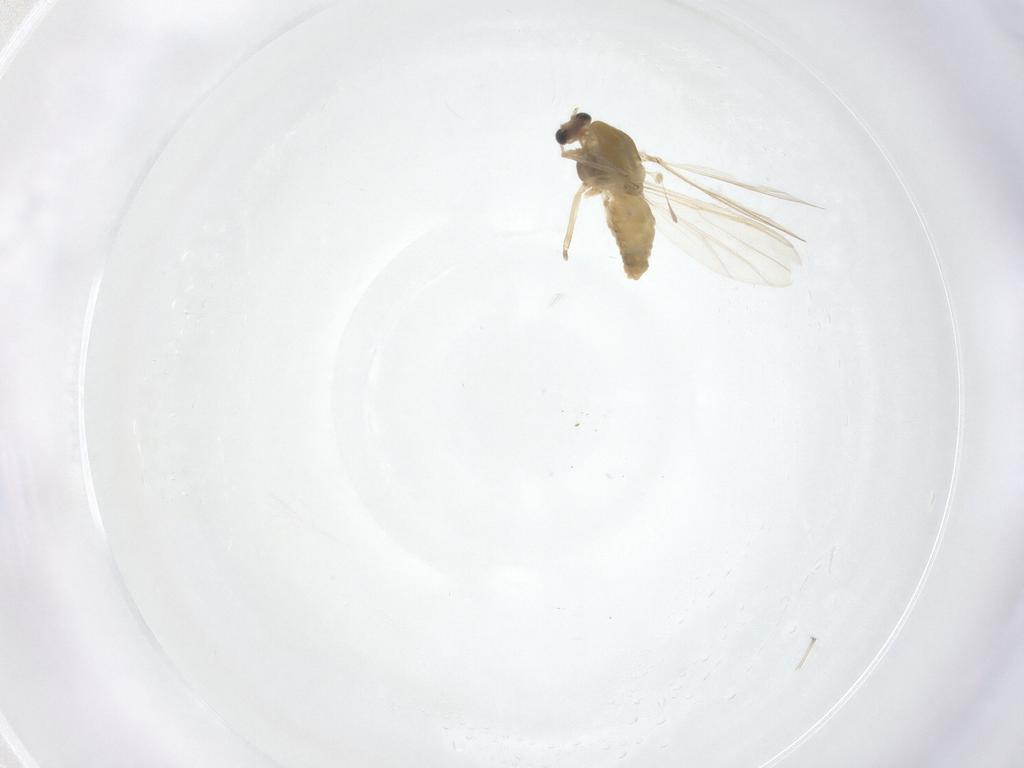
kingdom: Animalia
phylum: Arthropoda
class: Insecta
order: Diptera
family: Chironomidae
